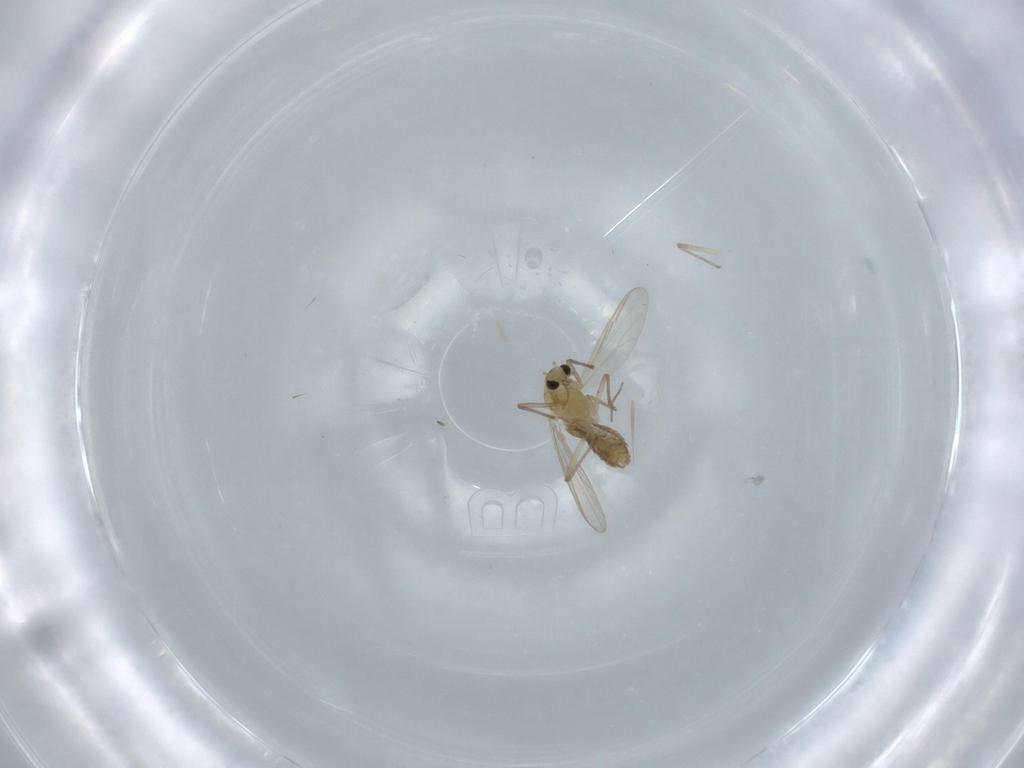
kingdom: Animalia
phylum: Arthropoda
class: Insecta
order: Diptera
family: Chironomidae
